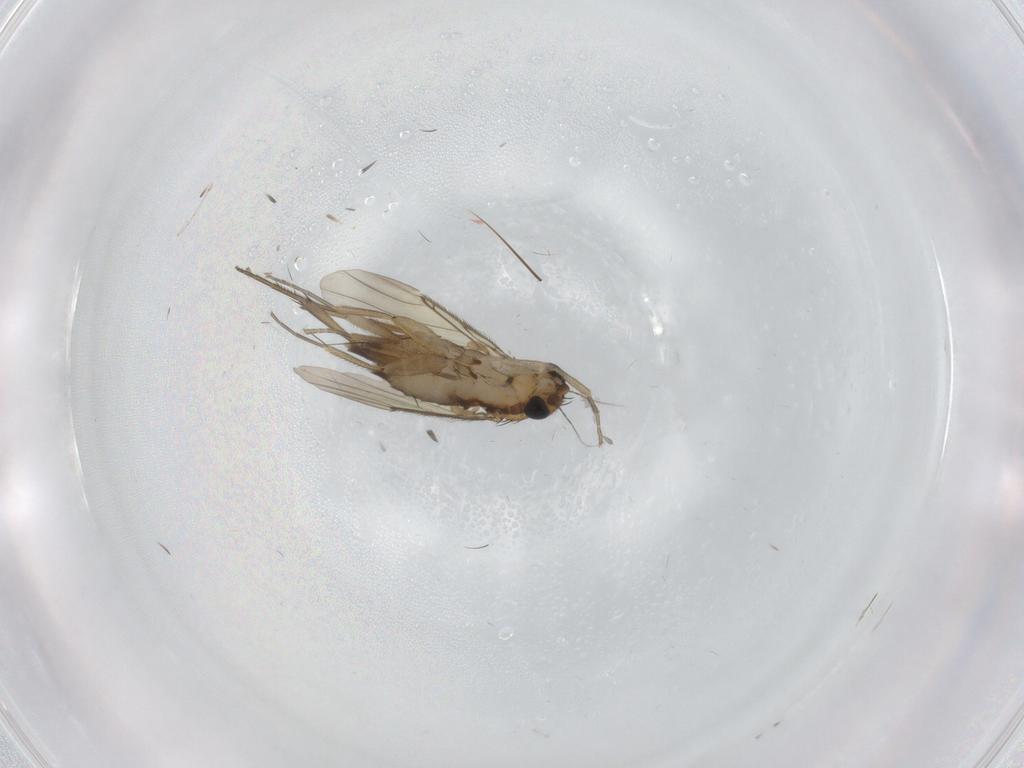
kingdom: Animalia
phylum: Arthropoda
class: Insecta
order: Diptera
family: Phoridae
